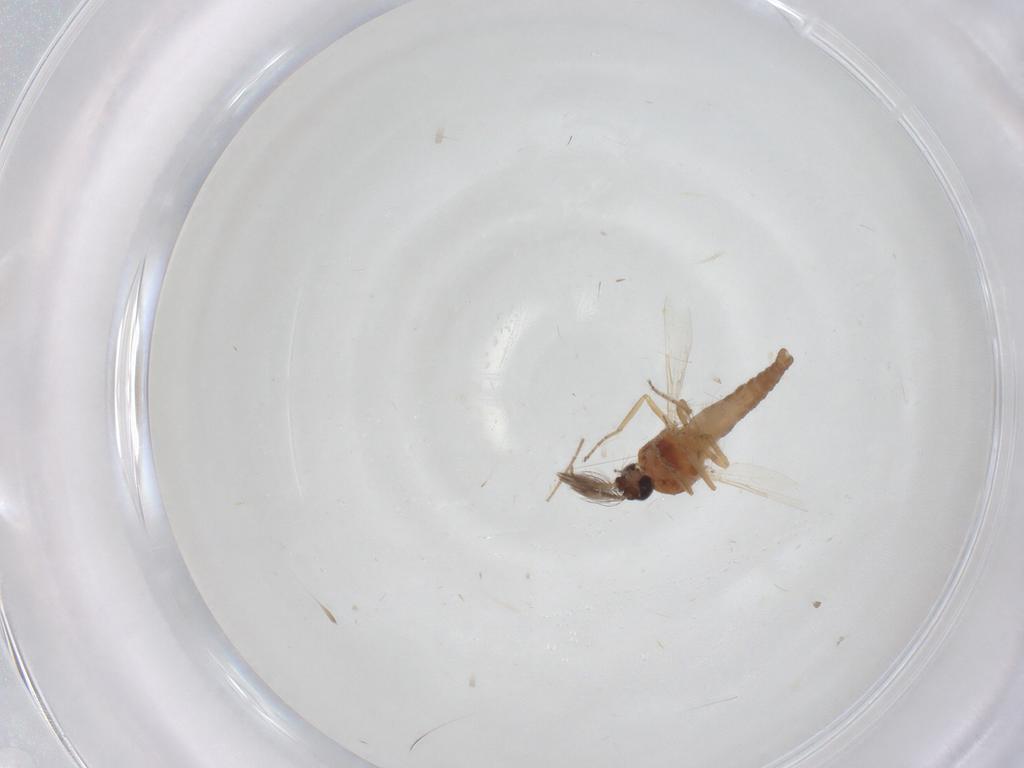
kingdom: Animalia
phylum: Arthropoda
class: Insecta
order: Diptera
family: Ceratopogonidae
